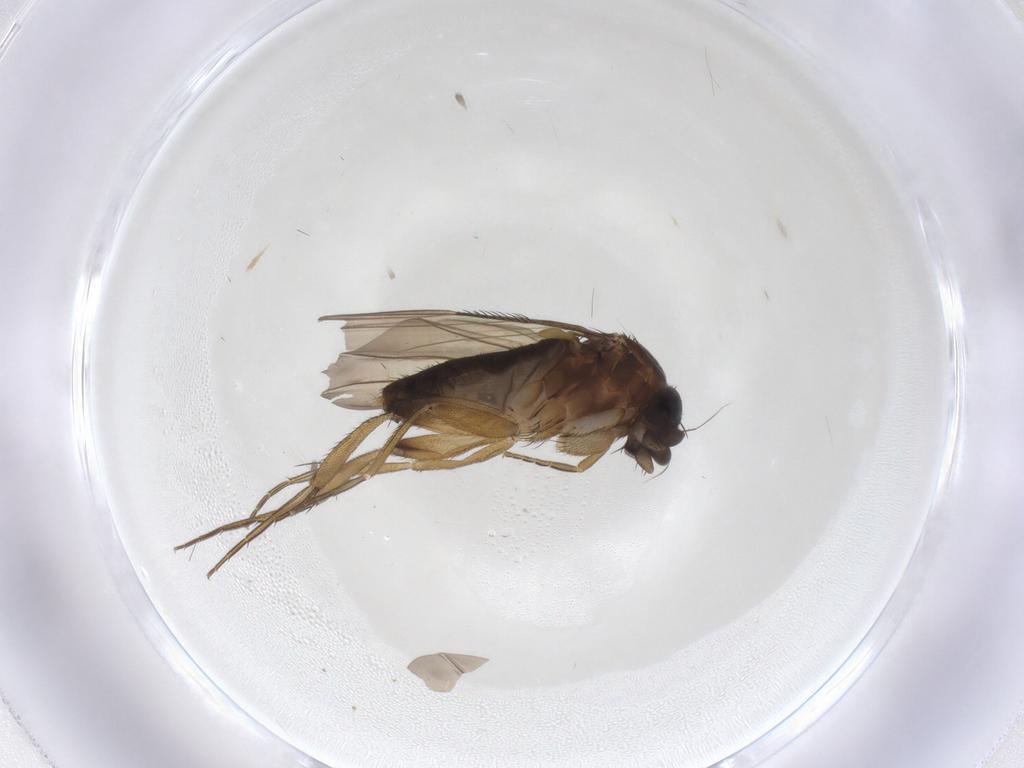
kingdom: Animalia
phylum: Arthropoda
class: Insecta
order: Diptera
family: Phoridae
